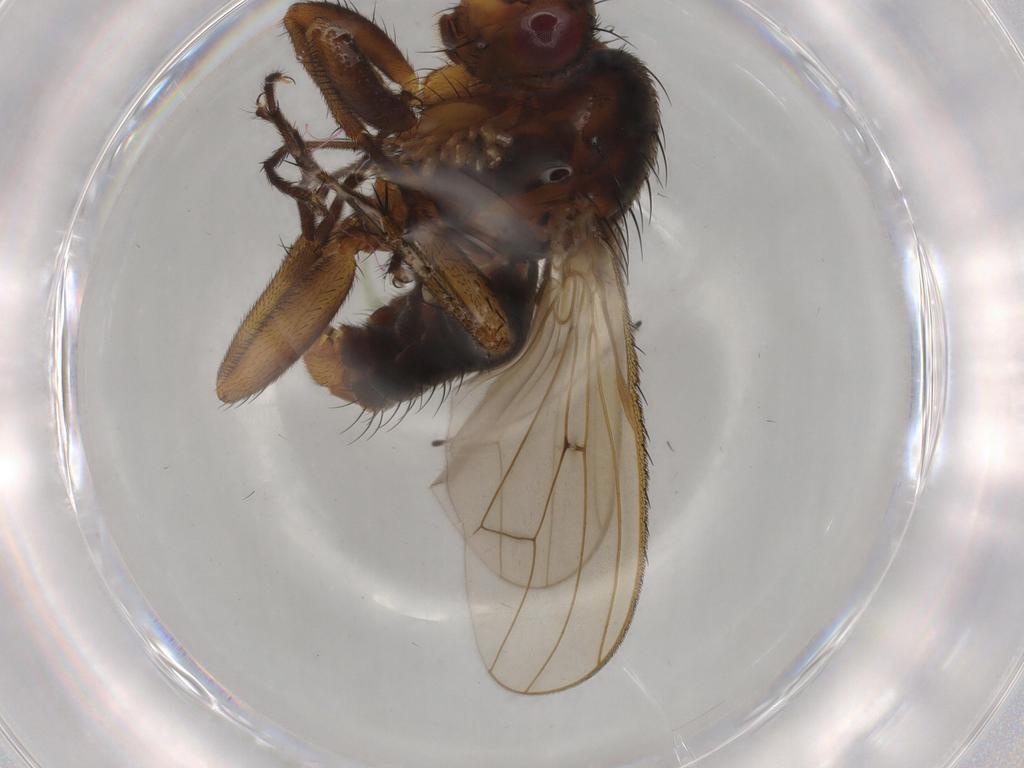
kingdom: Animalia
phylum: Arthropoda
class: Insecta
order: Diptera
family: Heleomyzidae
